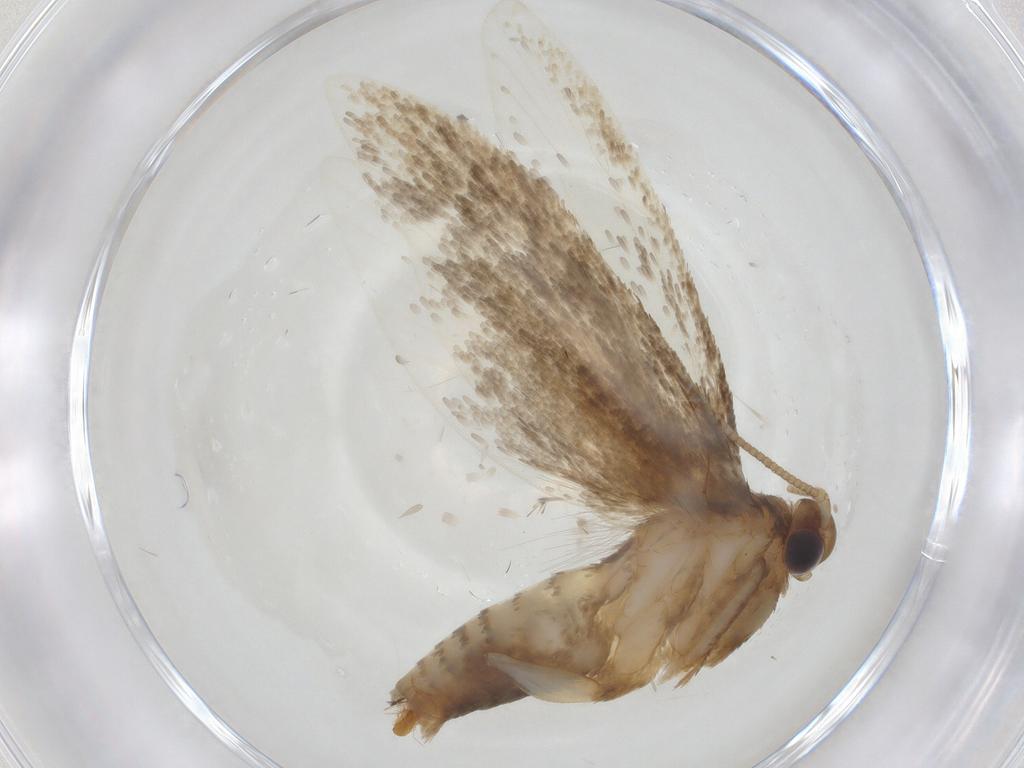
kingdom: Animalia
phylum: Arthropoda
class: Insecta
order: Lepidoptera
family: Tineidae
